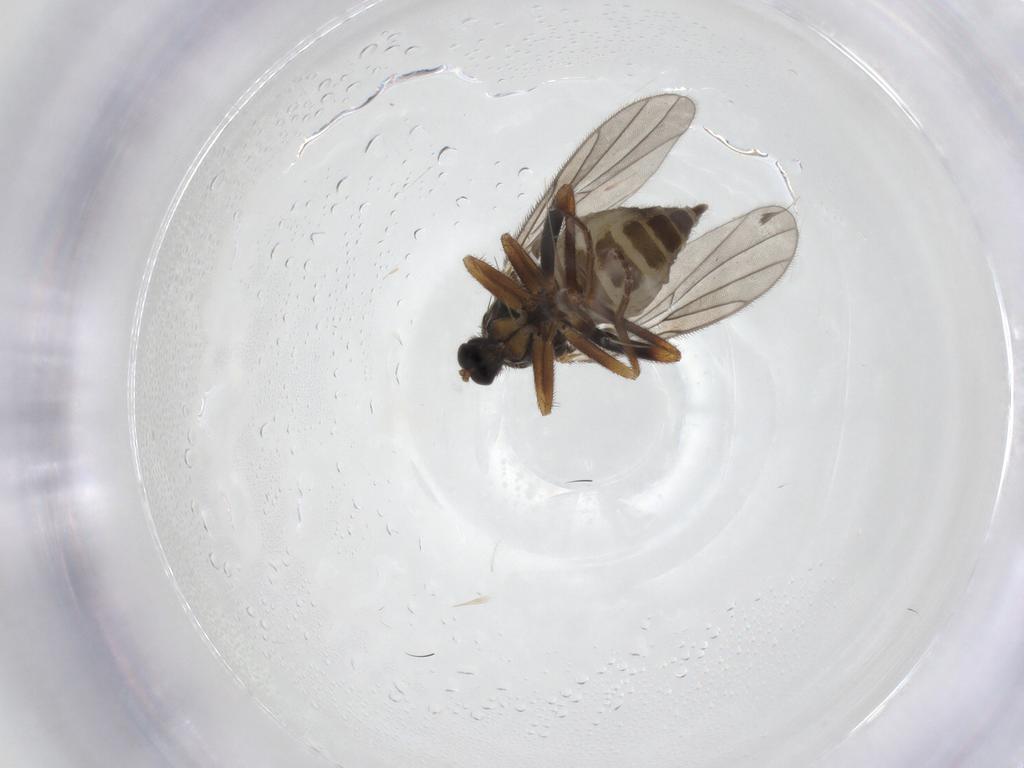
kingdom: Animalia
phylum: Arthropoda
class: Insecta
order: Diptera
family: Hybotidae
